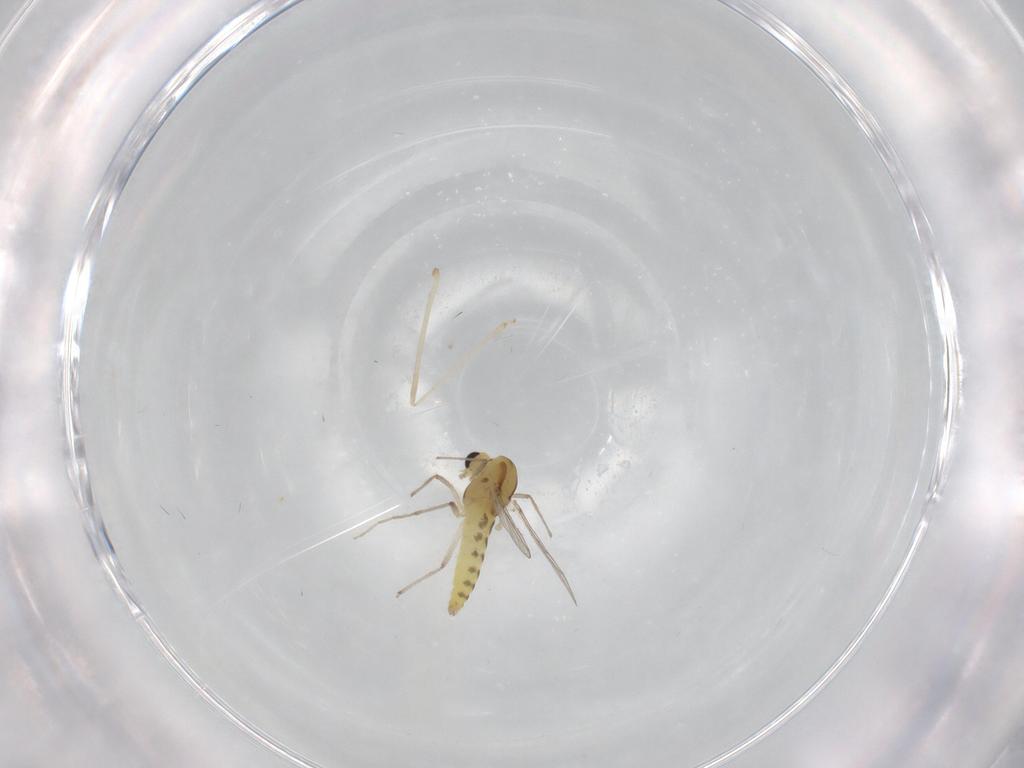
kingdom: Animalia
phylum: Arthropoda
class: Insecta
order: Diptera
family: Chironomidae
